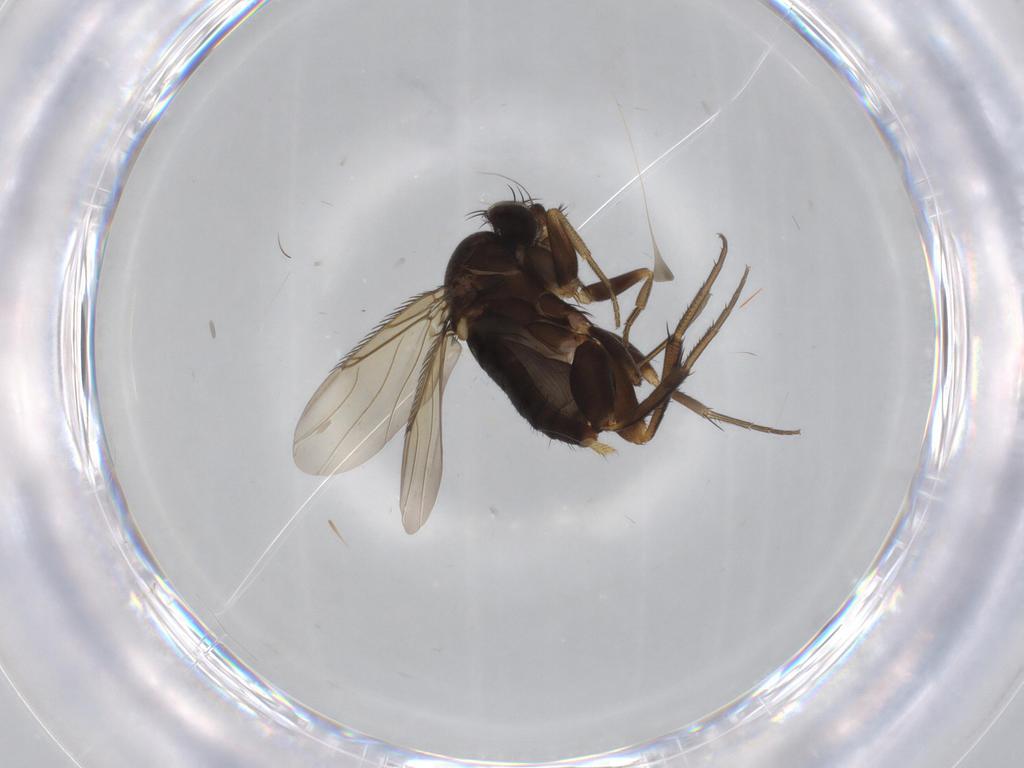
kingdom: Animalia
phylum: Arthropoda
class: Insecta
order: Diptera
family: Phoridae
